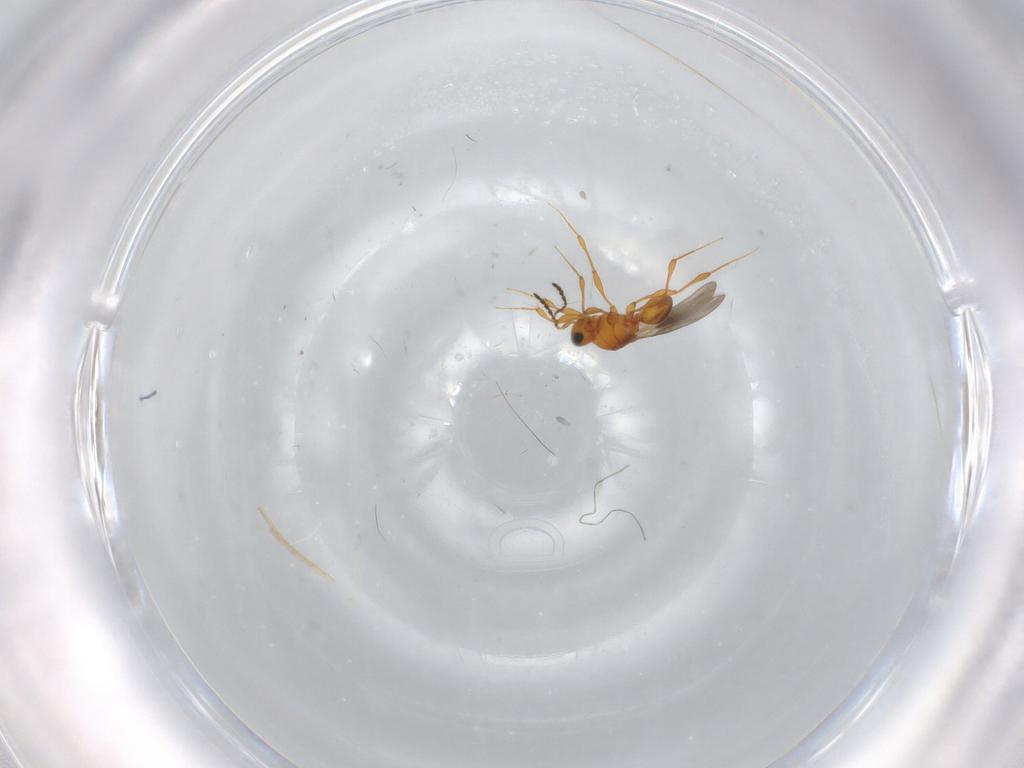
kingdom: Animalia
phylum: Arthropoda
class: Insecta
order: Hymenoptera
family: Platygastridae
